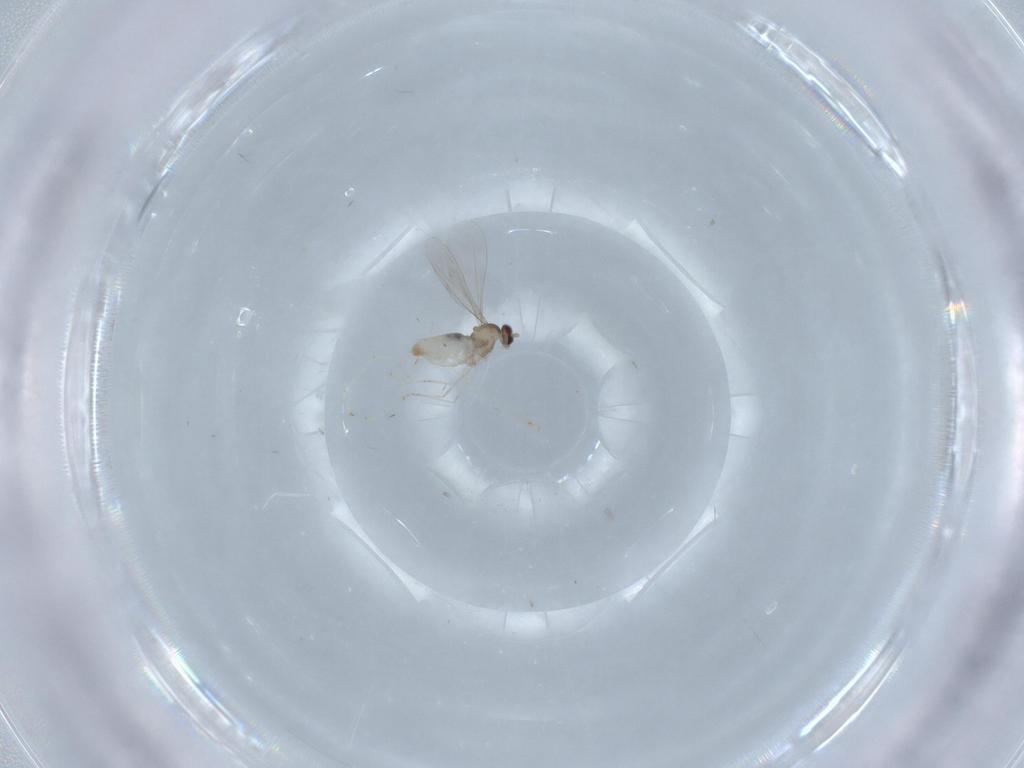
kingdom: Animalia
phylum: Arthropoda
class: Insecta
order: Diptera
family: Cecidomyiidae
